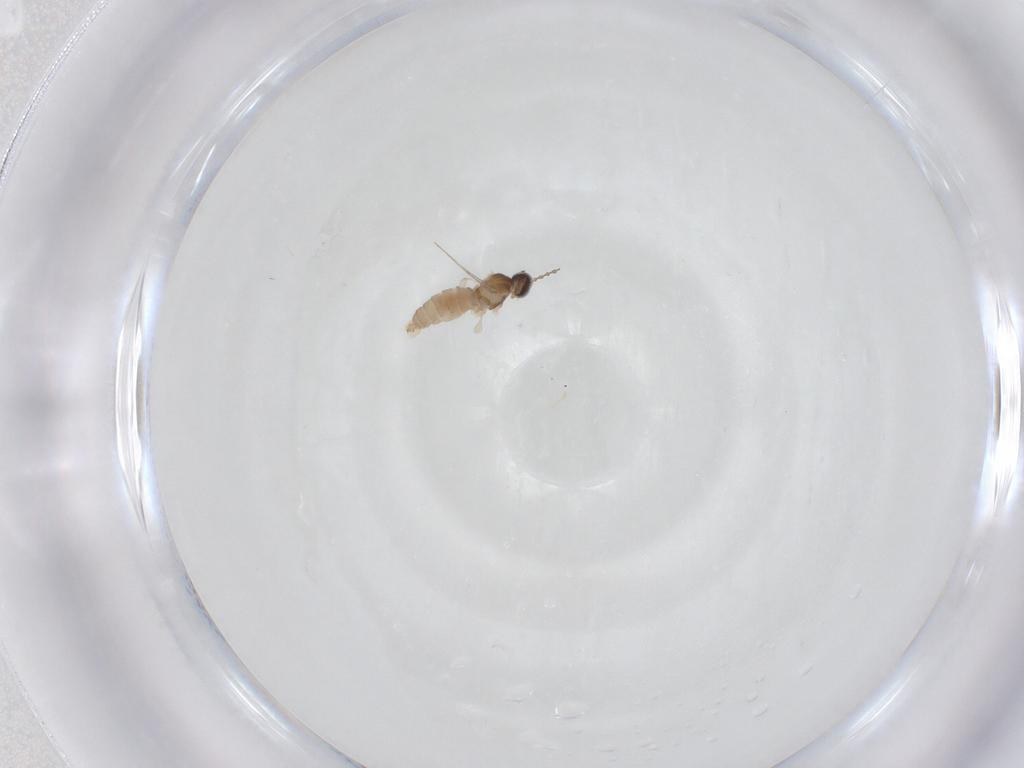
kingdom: Animalia
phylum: Arthropoda
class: Insecta
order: Diptera
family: Cecidomyiidae
